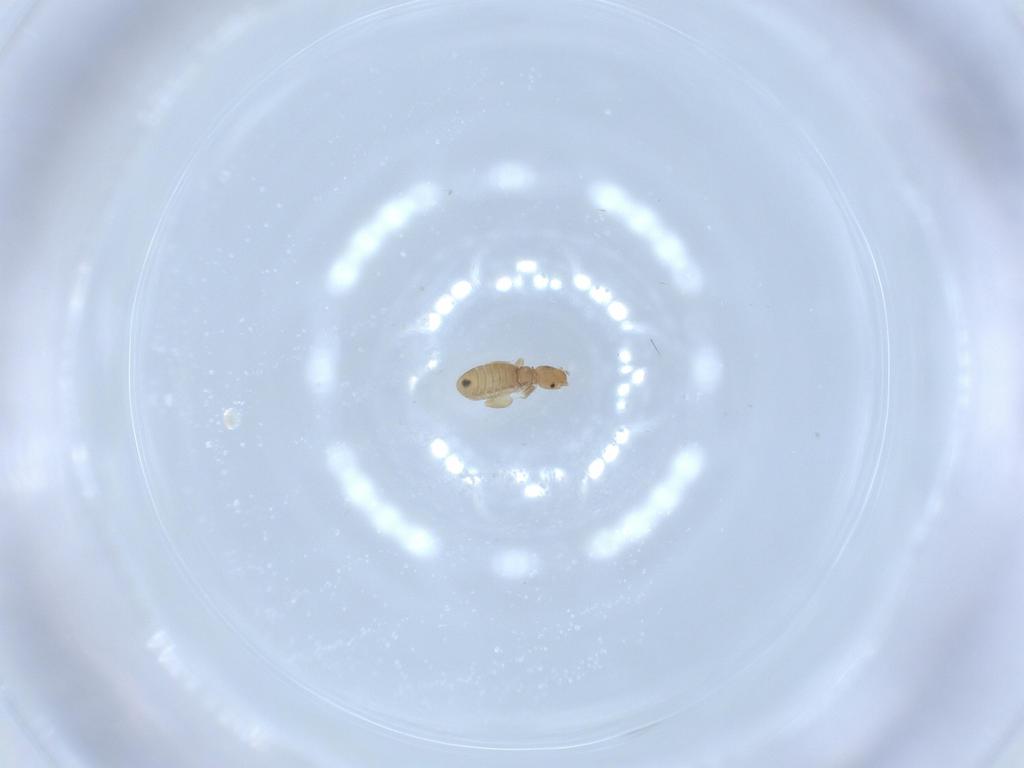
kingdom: Animalia
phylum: Arthropoda
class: Insecta
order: Psocodea
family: Liposcelididae
